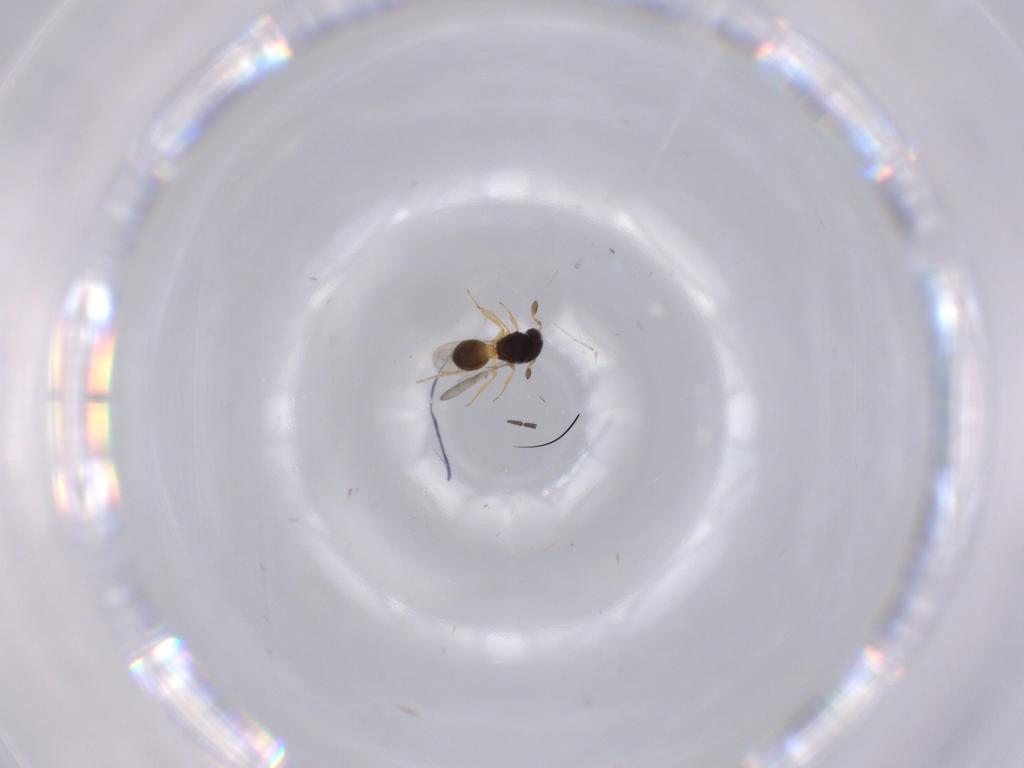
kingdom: Animalia
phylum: Arthropoda
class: Insecta
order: Hymenoptera
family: Scelionidae
